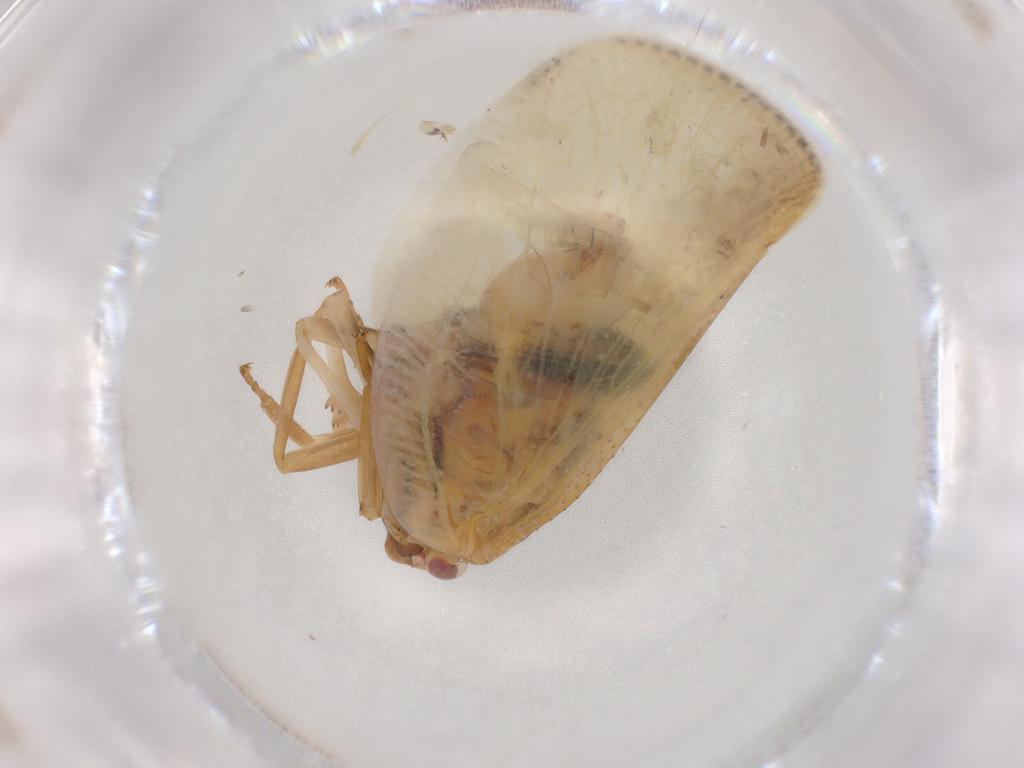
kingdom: Animalia
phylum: Arthropoda
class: Insecta
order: Hemiptera
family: Flatidae
